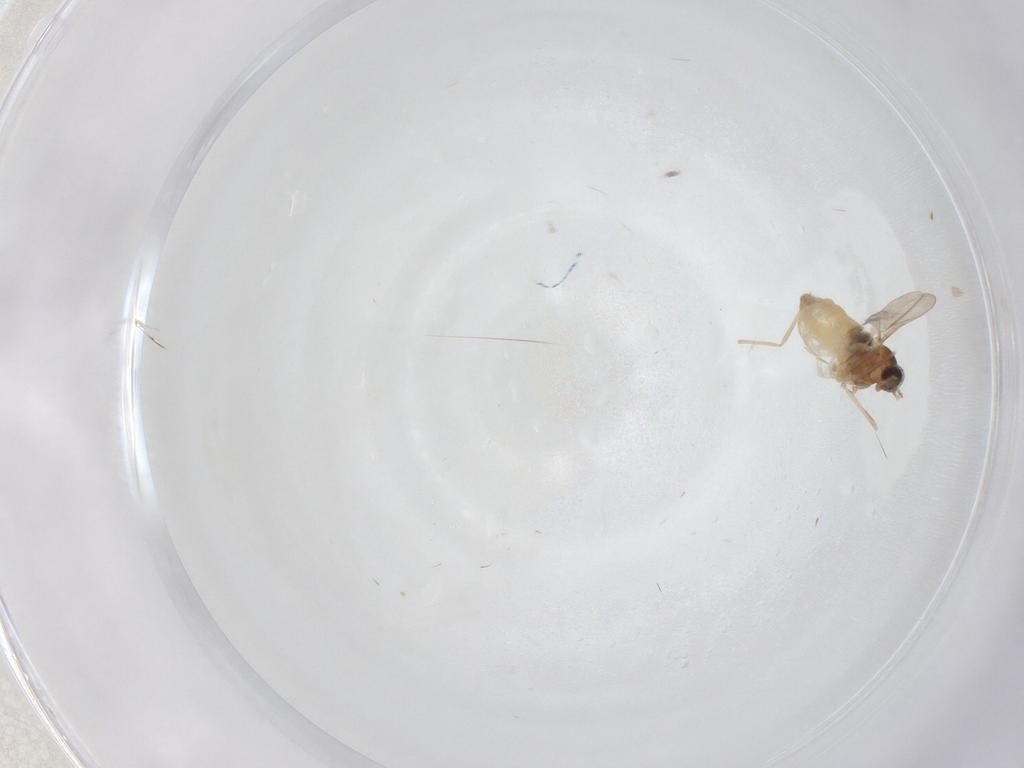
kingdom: Animalia
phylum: Arthropoda
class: Insecta
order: Diptera
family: Cecidomyiidae
